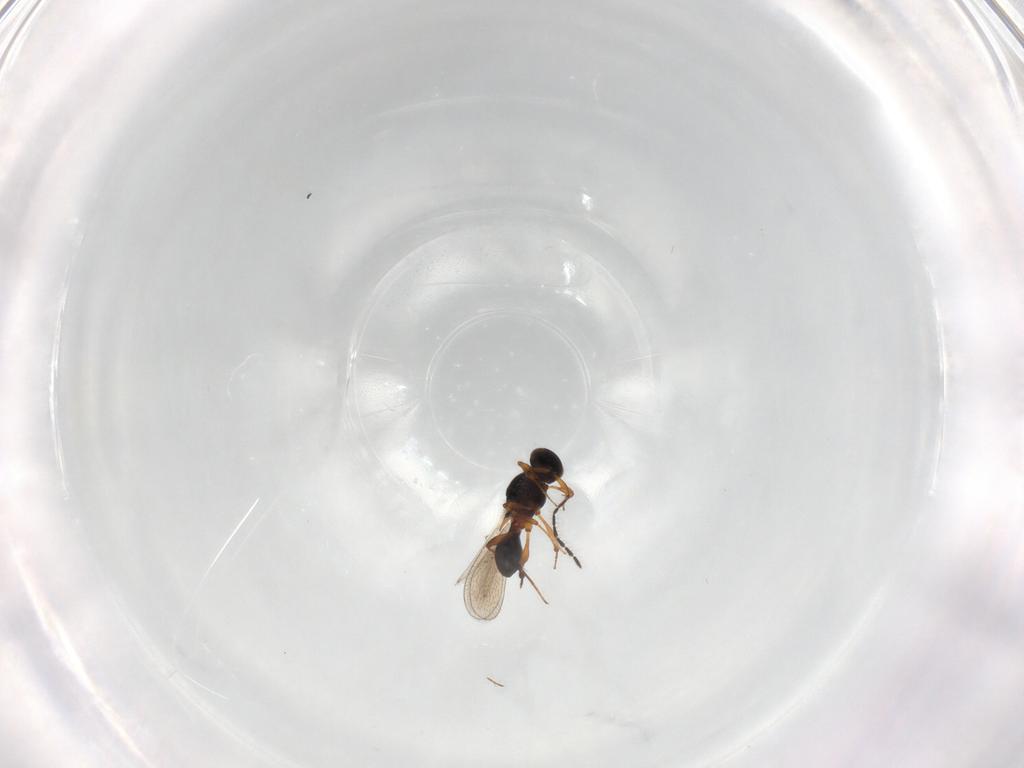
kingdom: Animalia
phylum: Arthropoda
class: Insecta
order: Hymenoptera
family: Platygastridae
